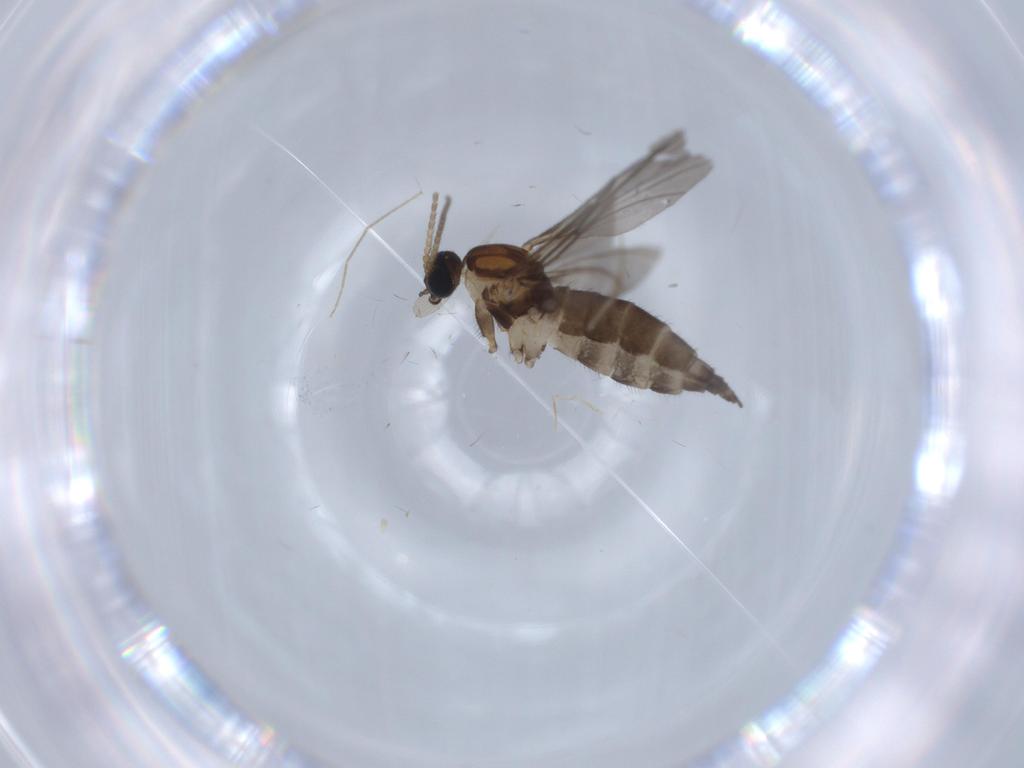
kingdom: Animalia
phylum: Arthropoda
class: Insecta
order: Diptera
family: Sciaridae
